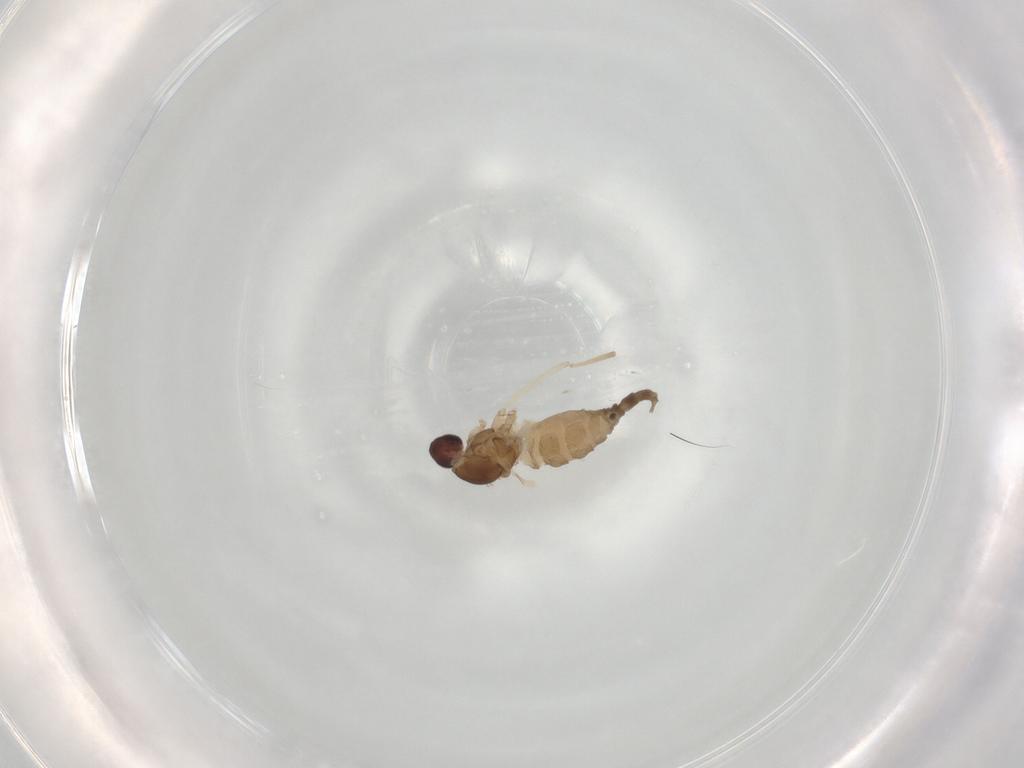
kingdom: Animalia
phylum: Arthropoda
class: Insecta
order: Diptera
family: Cecidomyiidae
